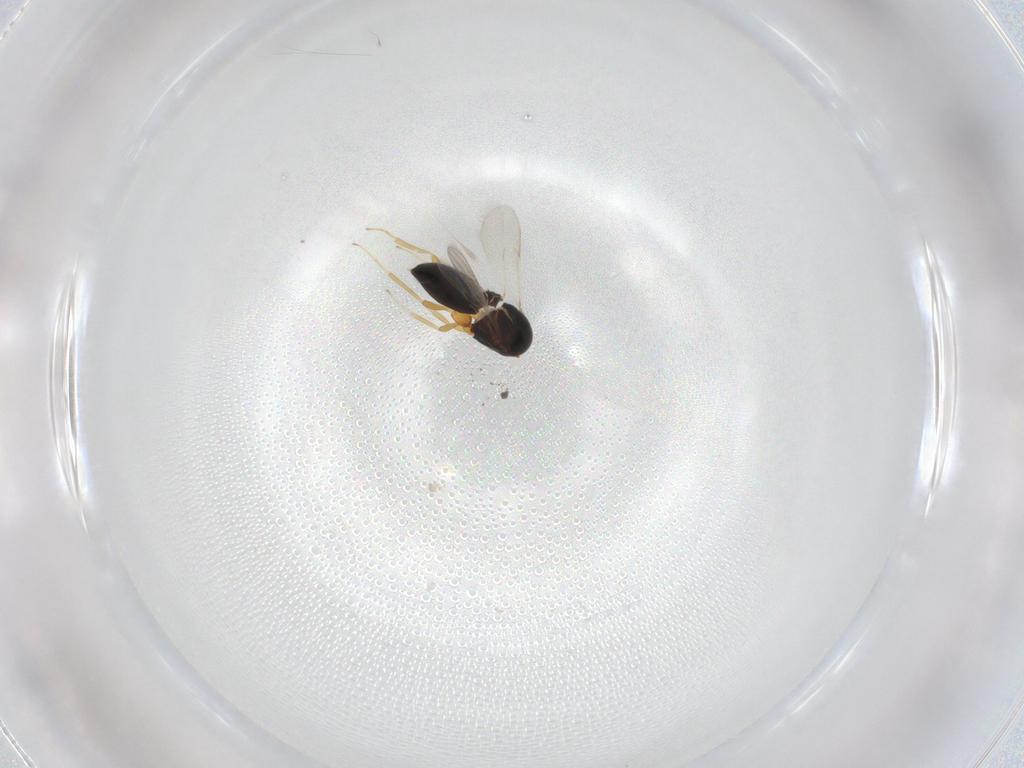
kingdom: Animalia
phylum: Arthropoda
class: Insecta
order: Hymenoptera
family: Scelionidae
